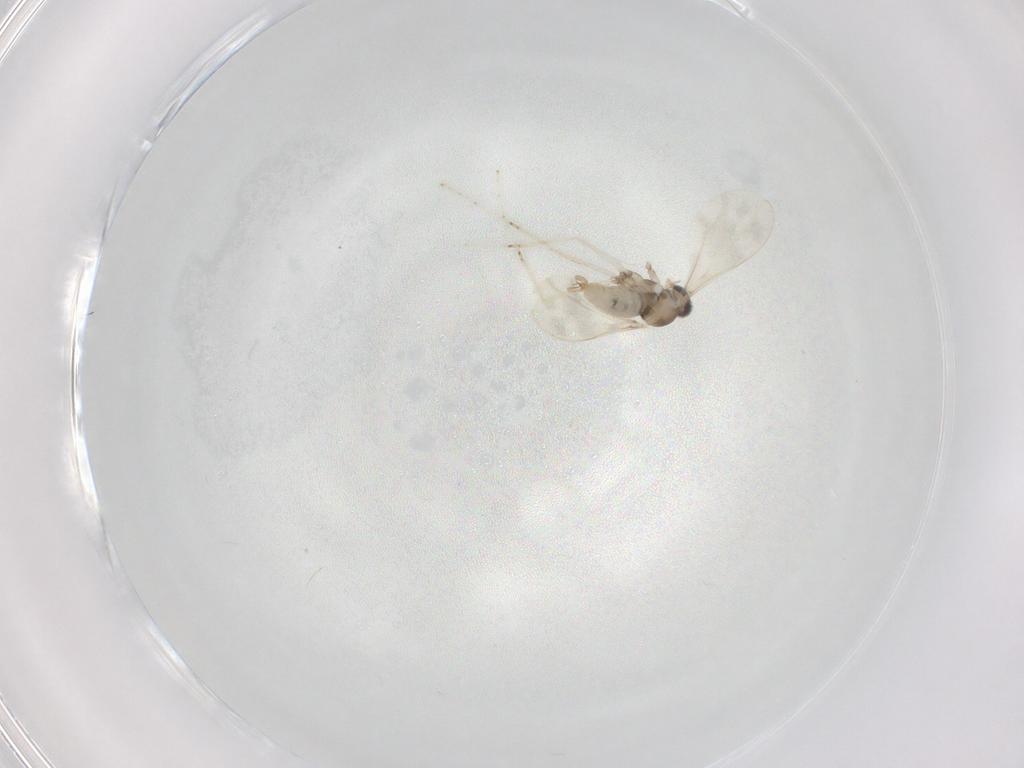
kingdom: Animalia
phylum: Arthropoda
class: Insecta
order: Diptera
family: Cecidomyiidae
